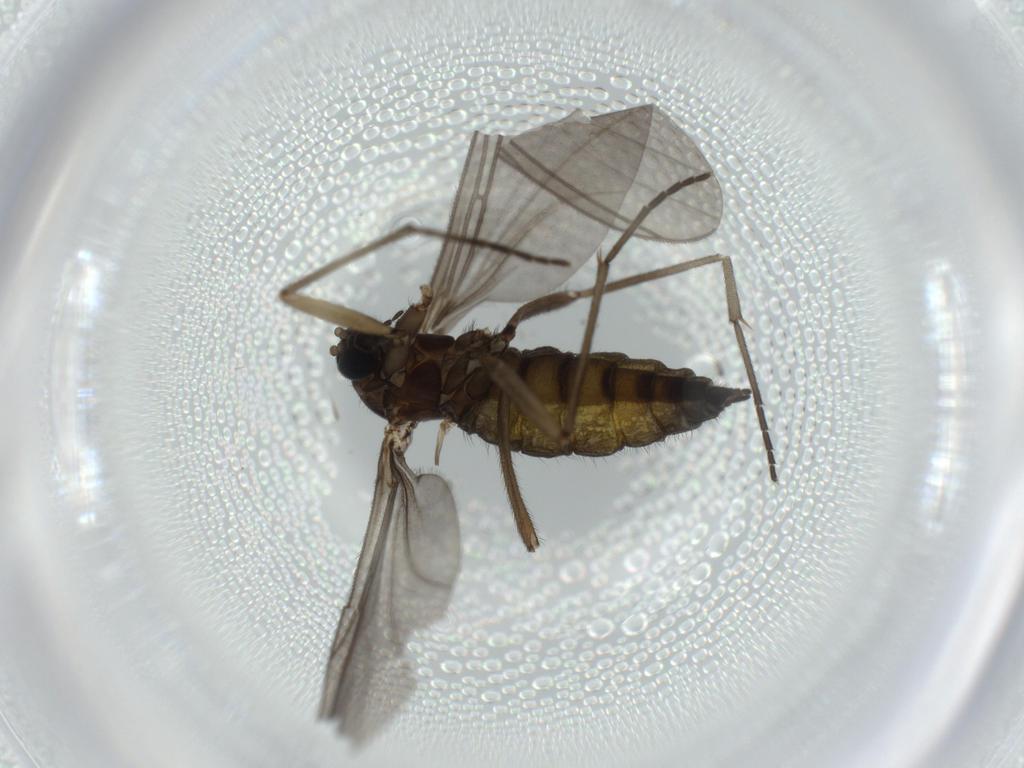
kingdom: Animalia
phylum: Arthropoda
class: Insecta
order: Diptera
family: Sciaridae
